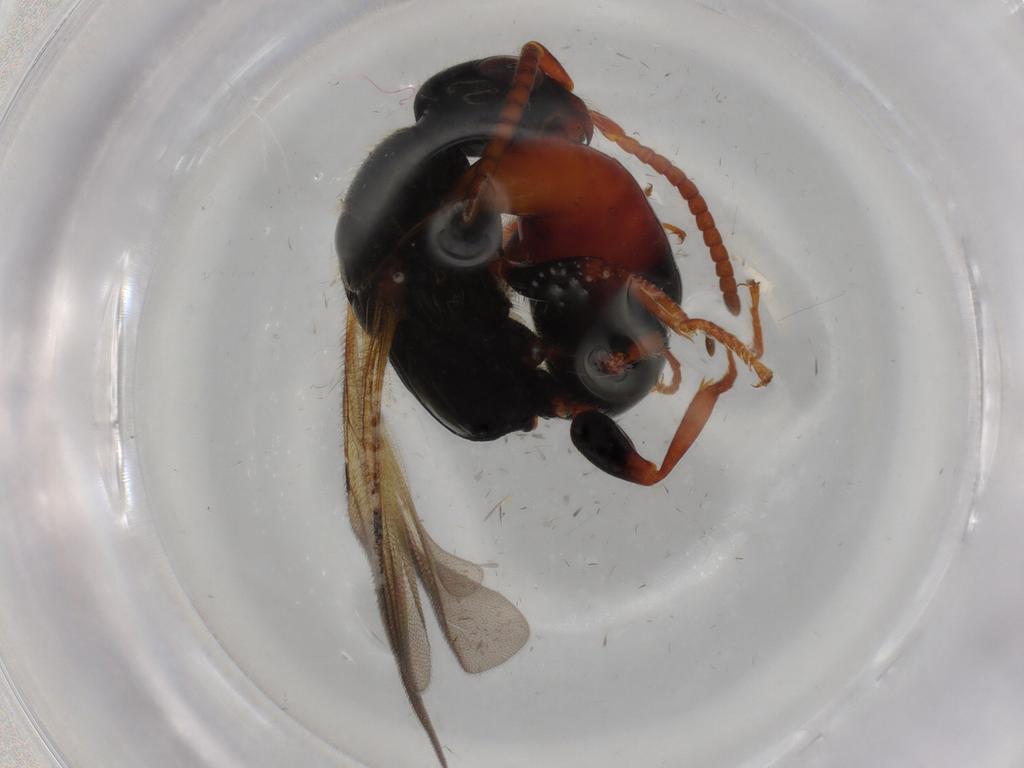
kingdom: Animalia
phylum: Arthropoda
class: Insecta
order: Hymenoptera
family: Bethylidae
